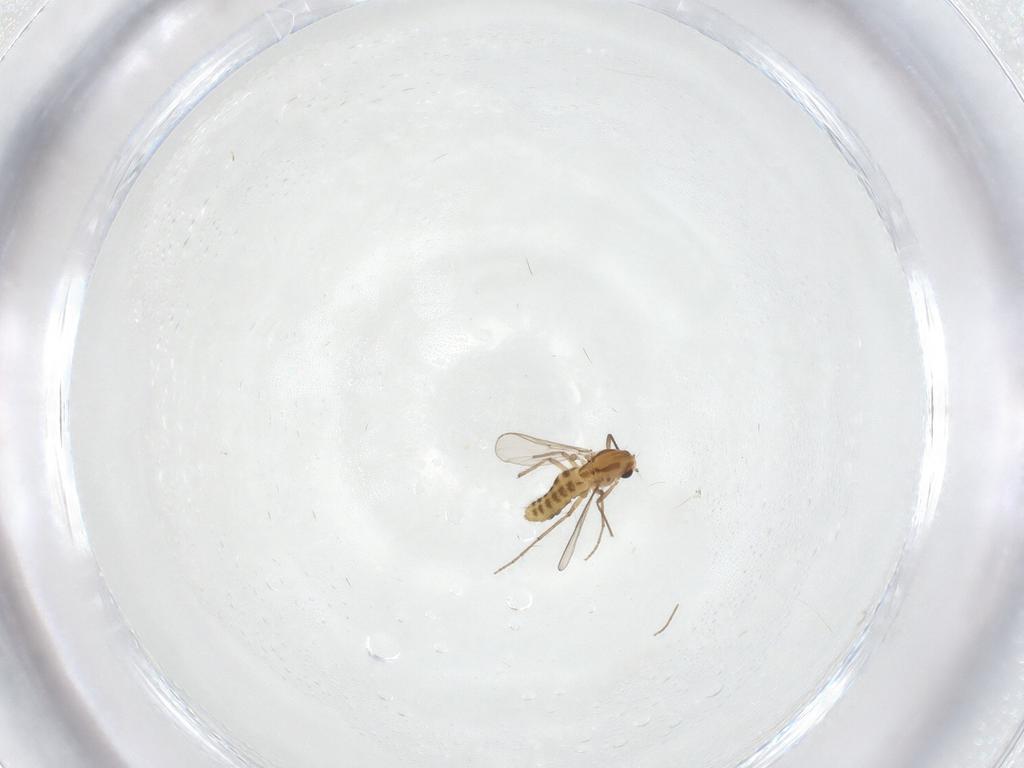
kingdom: Animalia
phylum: Arthropoda
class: Insecta
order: Diptera
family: Chironomidae
